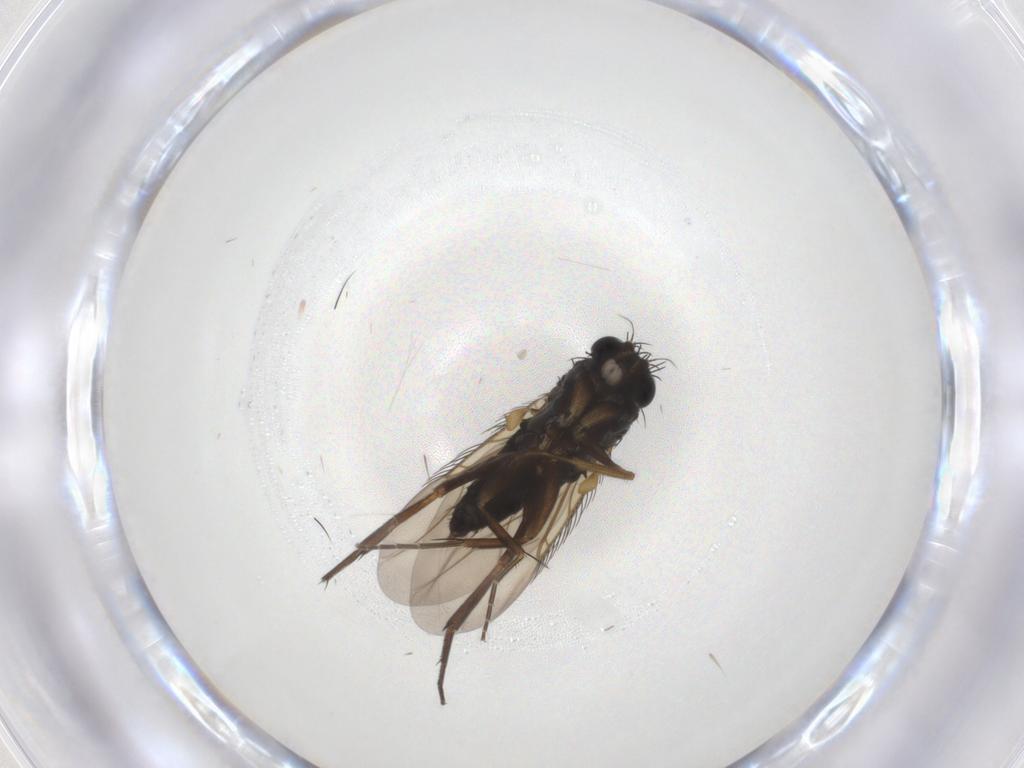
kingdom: Animalia
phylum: Arthropoda
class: Insecta
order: Diptera
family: Phoridae
